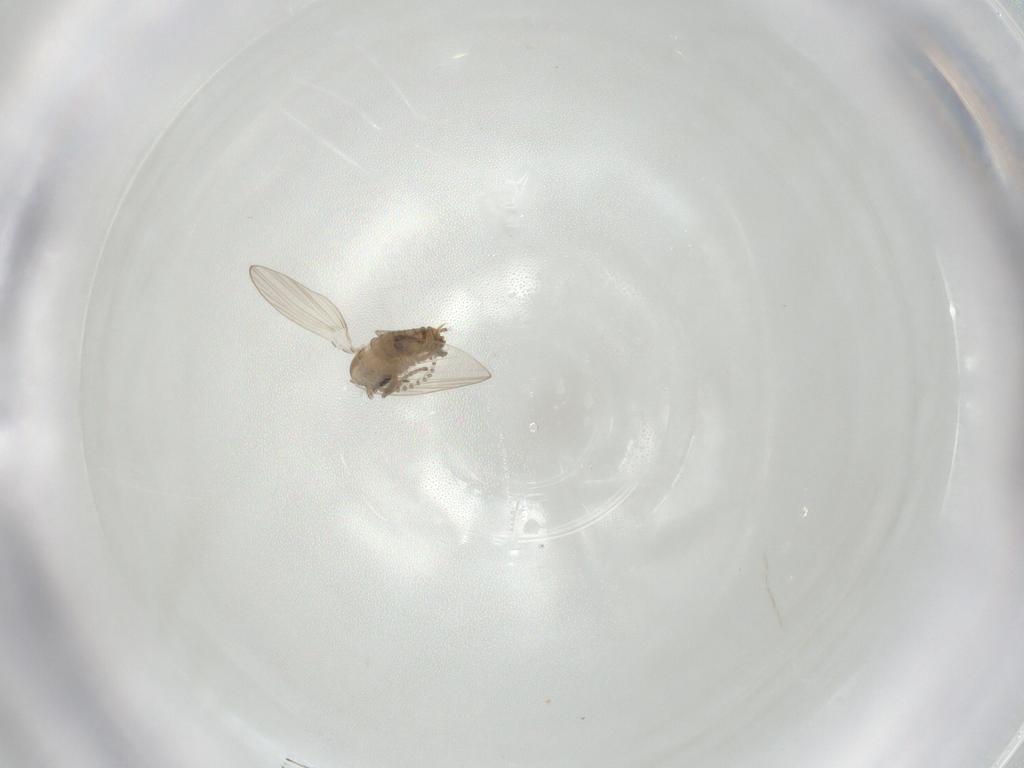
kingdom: Animalia
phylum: Arthropoda
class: Insecta
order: Diptera
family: Psychodidae
